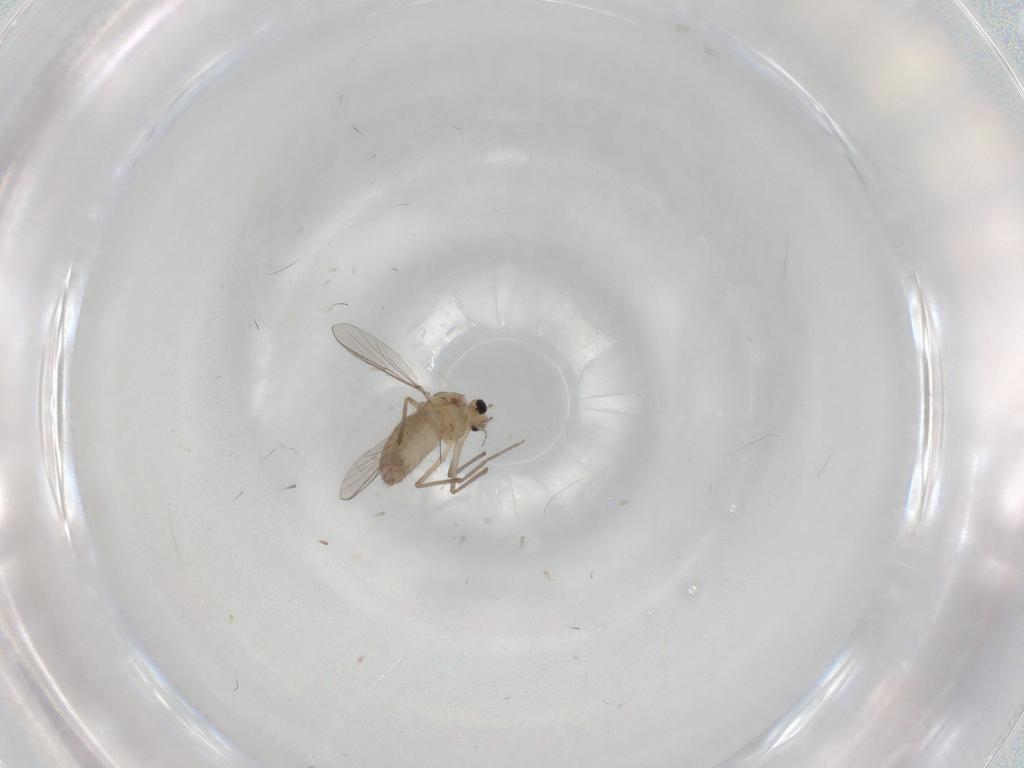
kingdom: Animalia
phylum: Arthropoda
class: Insecta
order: Diptera
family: Chironomidae
